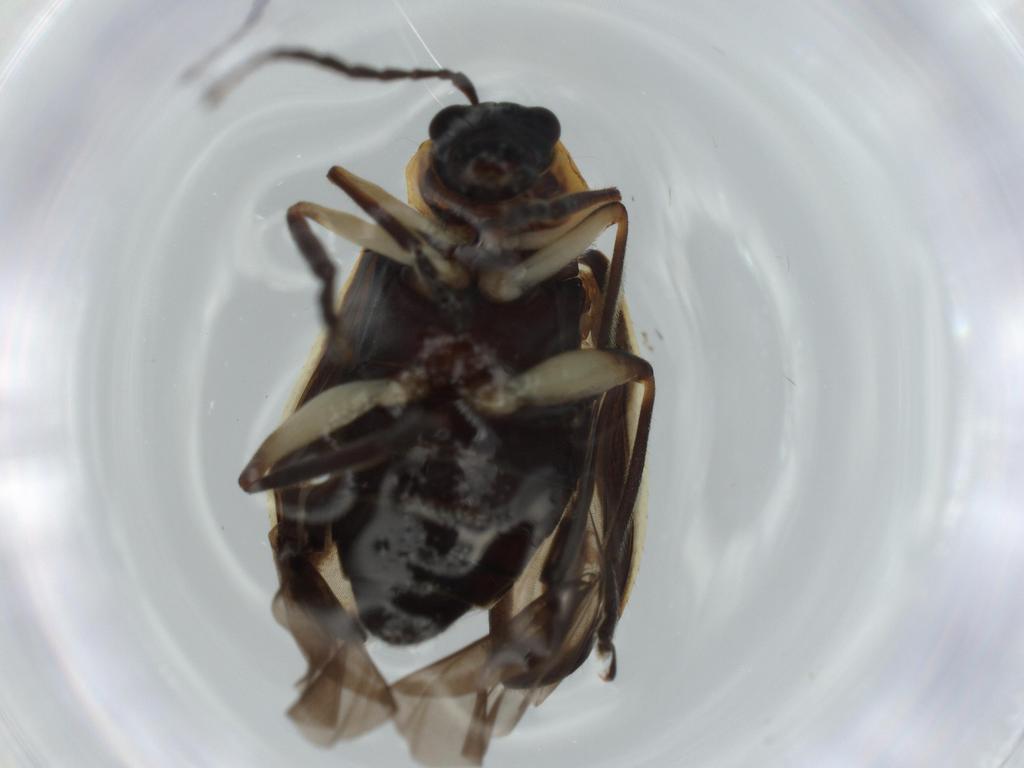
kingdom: Animalia
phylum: Arthropoda
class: Insecta
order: Coleoptera
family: Chrysomelidae
